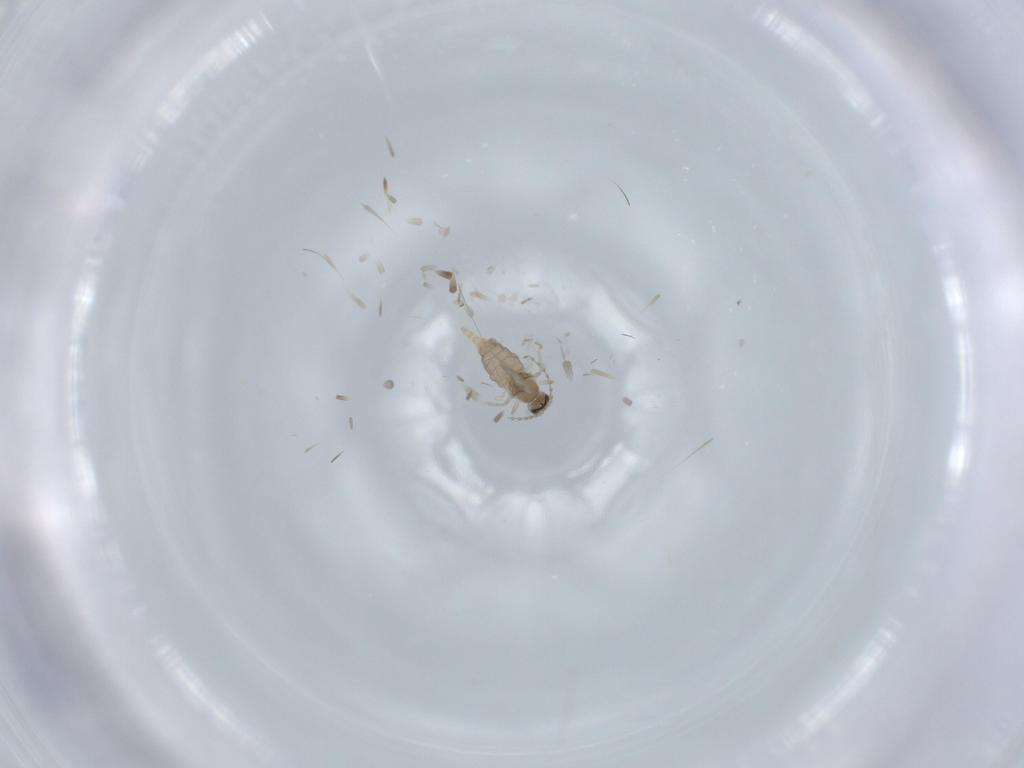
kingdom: Animalia
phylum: Arthropoda
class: Insecta
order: Diptera
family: Cecidomyiidae
